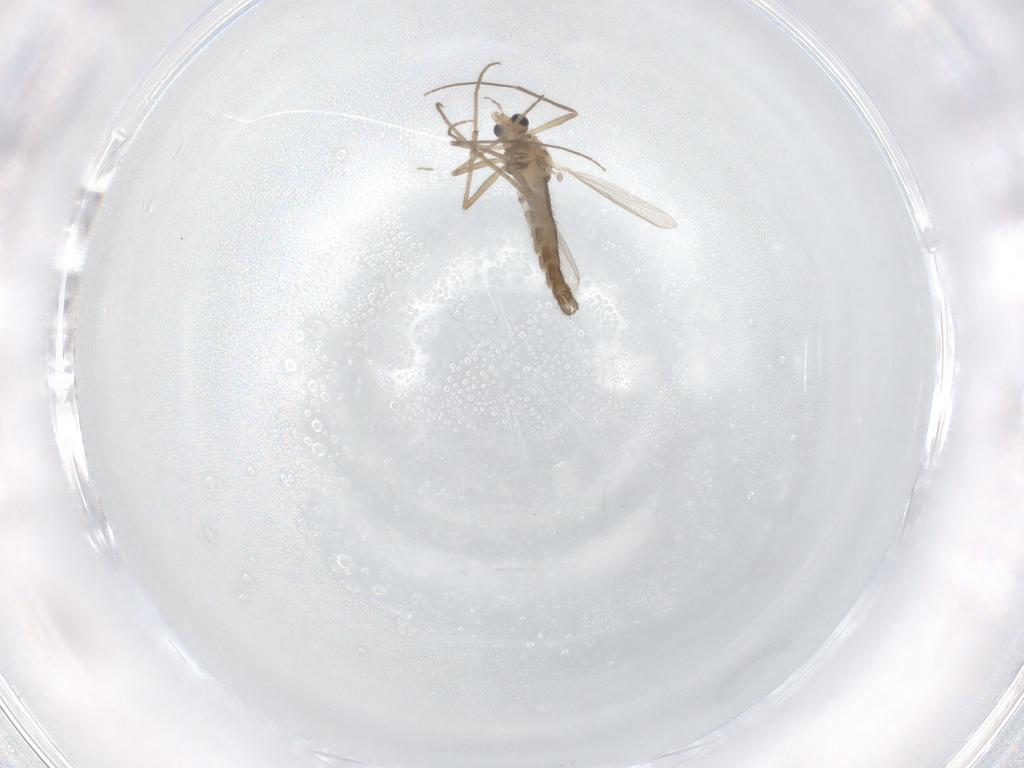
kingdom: Animalia
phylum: Arthropoda
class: Insecta
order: Diptera
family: Chironomidae
